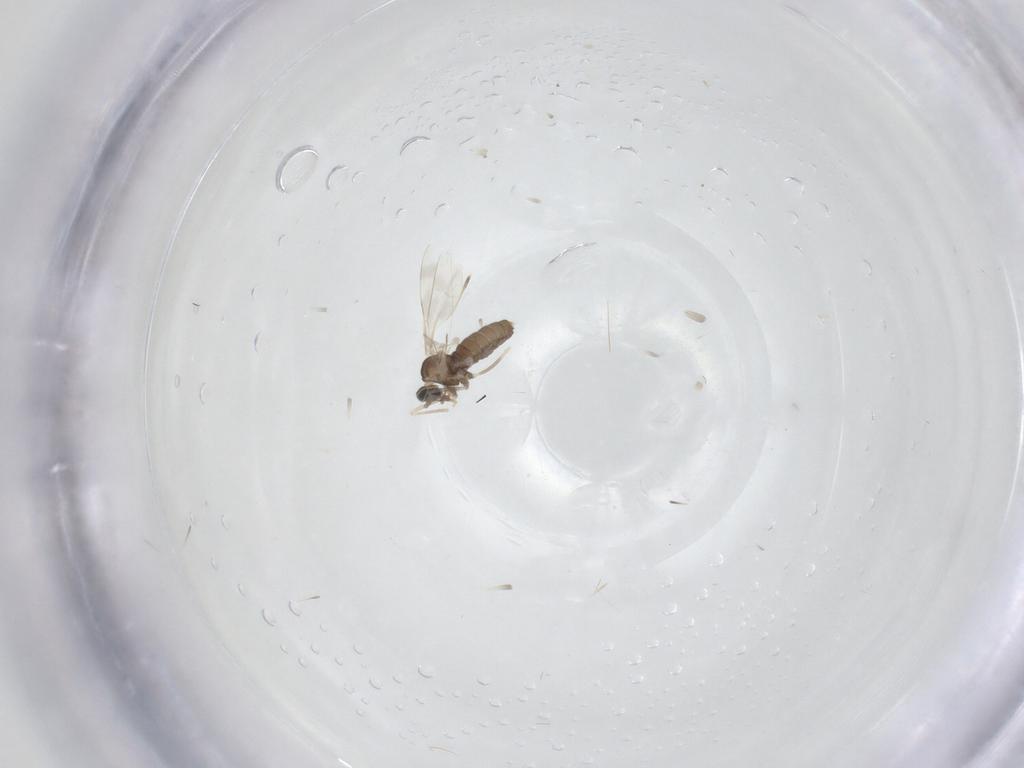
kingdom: Animalia
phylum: Arthropoda
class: Insecta
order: Diptera
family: Cecidomyiidae
